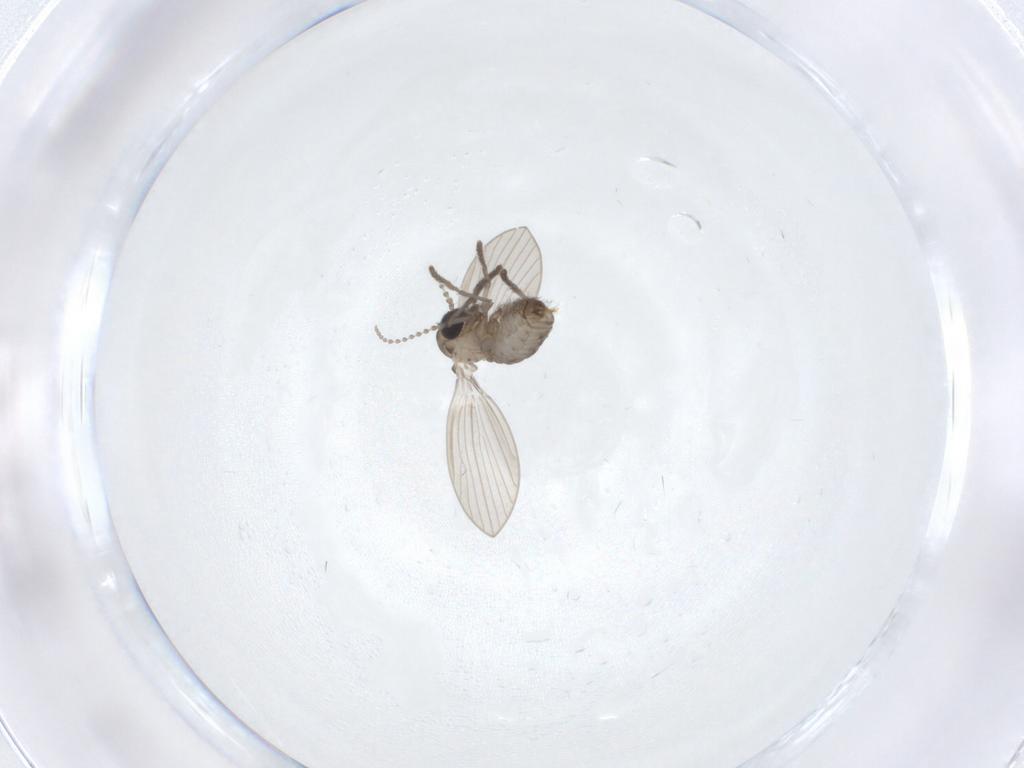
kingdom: Animalia
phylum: Arthropoda
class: Insecta
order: Diptera
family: Psychodidae
